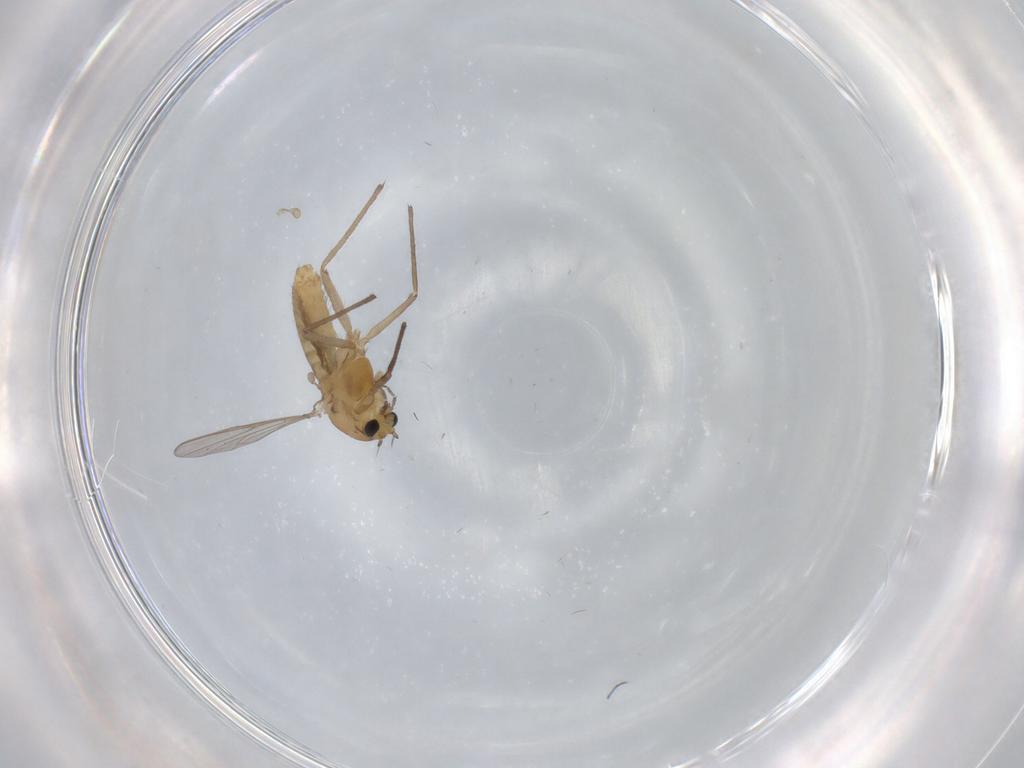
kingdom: Animalia
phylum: Arthropoda
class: Insecta
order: Diptera
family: Chironomidae
